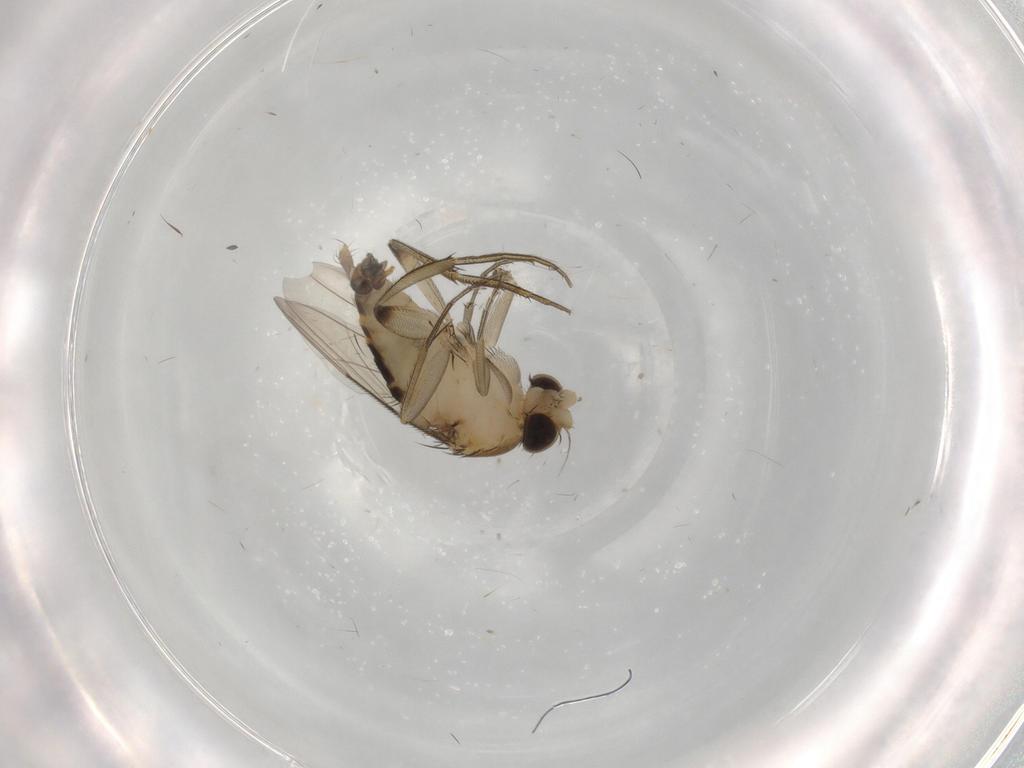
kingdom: Animalia
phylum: Arthropoda
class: Insecta
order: Diptera
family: Phoridae
